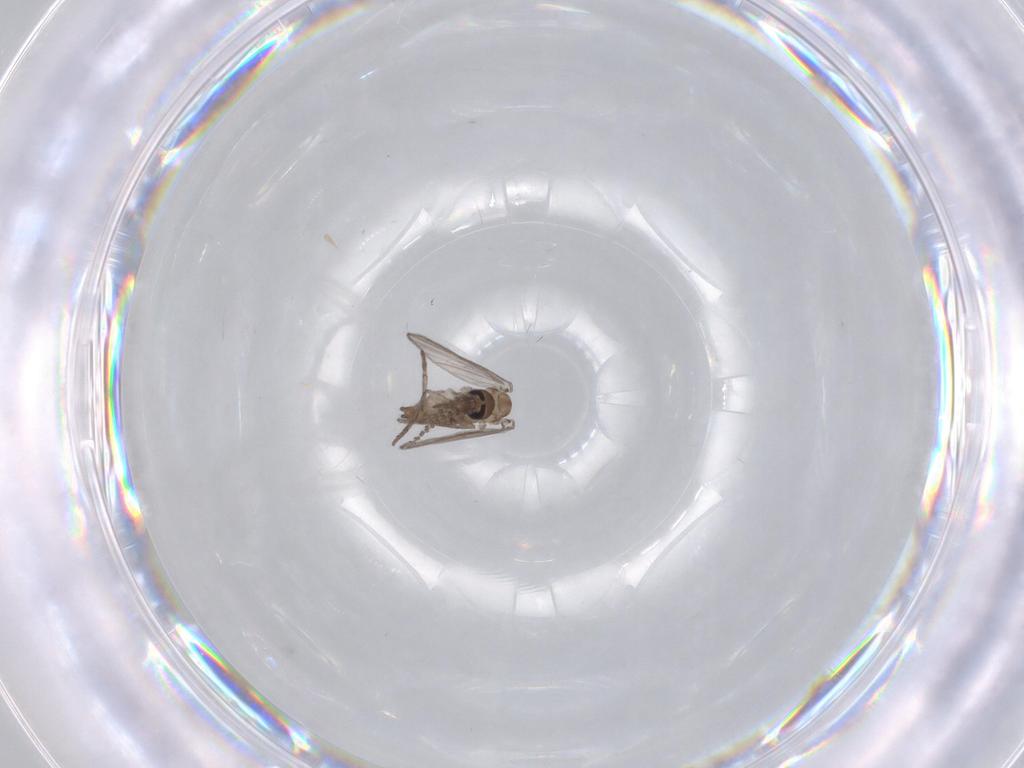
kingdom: Animalia
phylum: Arthropoda
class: Insecta
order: Diptera
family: Psychodidae
